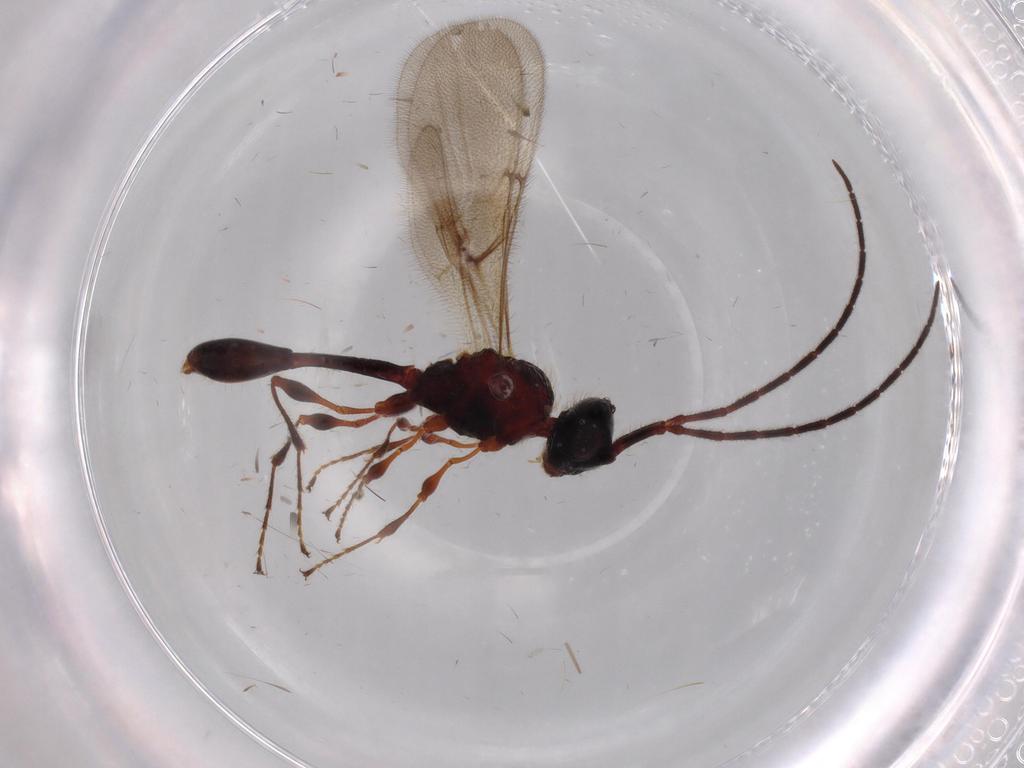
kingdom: Animalia
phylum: Arthropoda
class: Insecta
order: Hymenoptera
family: Diapriidae
